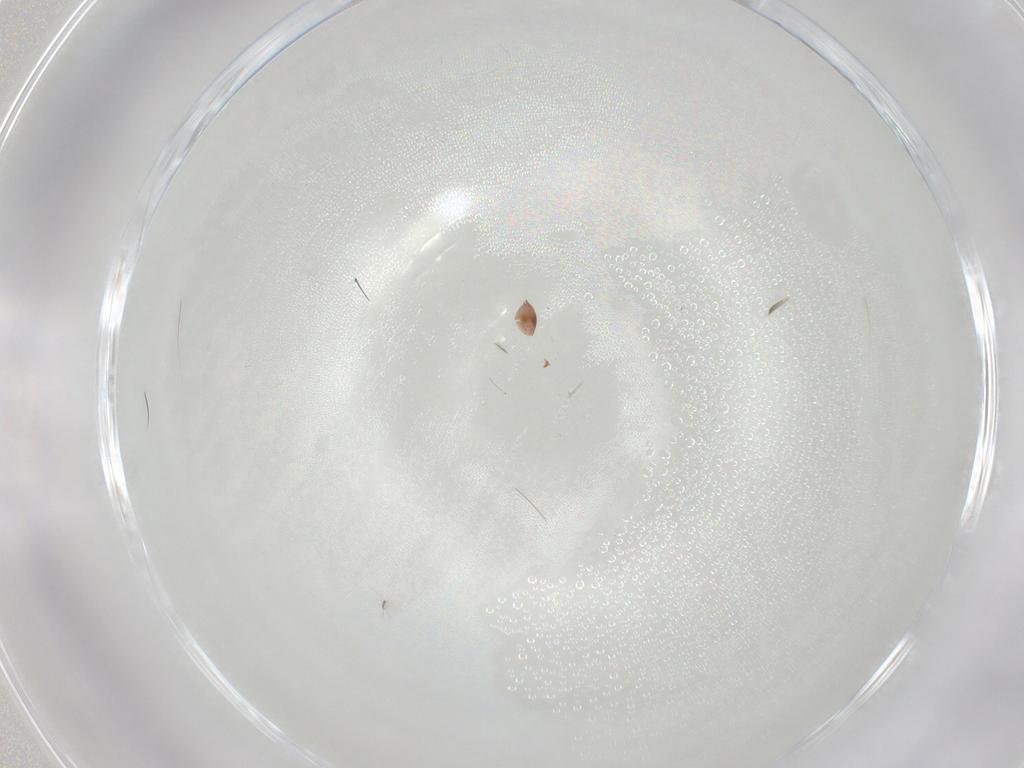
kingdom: Animalia
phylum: Arthropoda
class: Arachnida
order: Trombidiformes
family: Eupodidae
